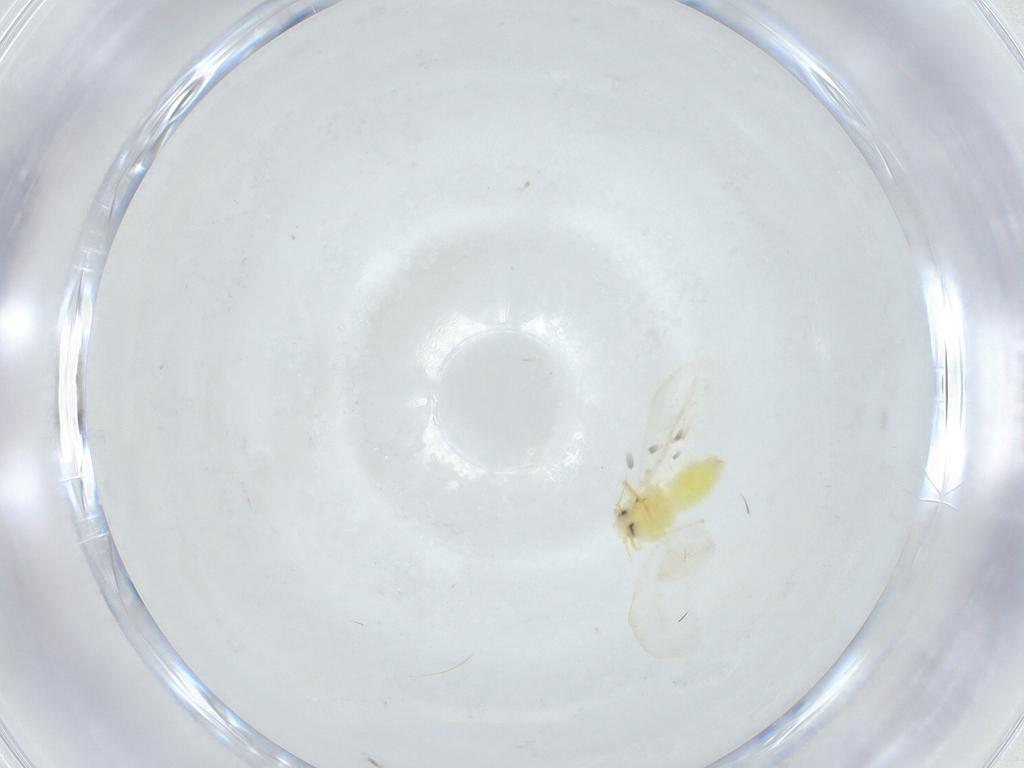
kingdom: Animalia
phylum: Arthropoda
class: Insecta
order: Hemiptera
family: Aleyrodidae
